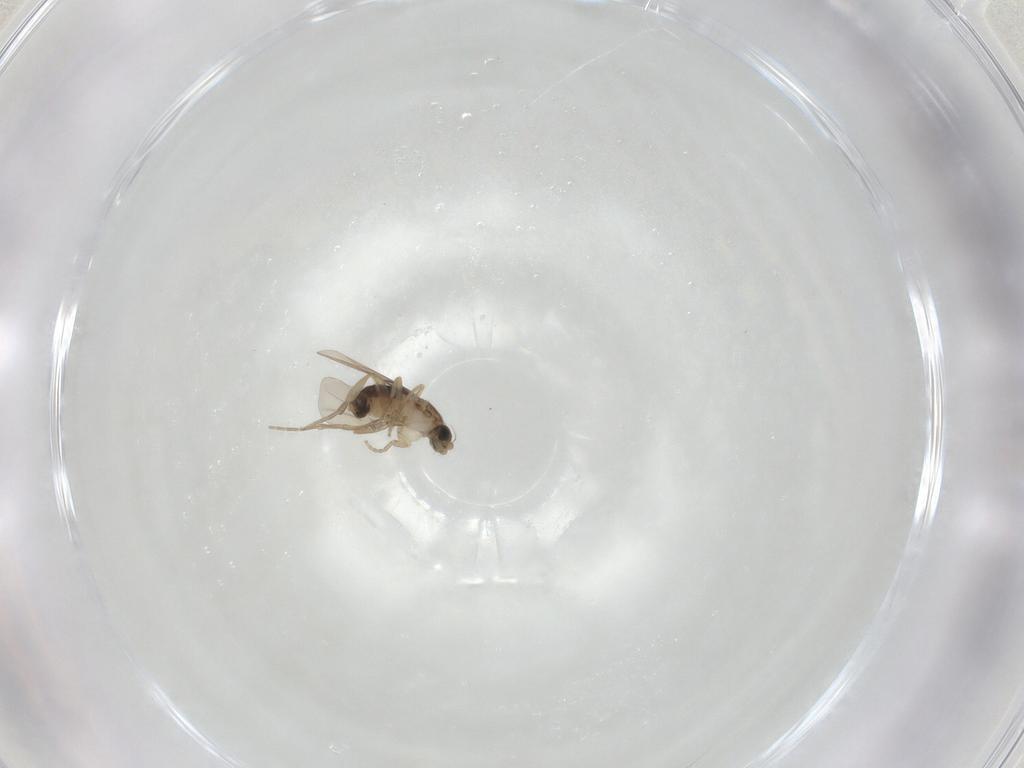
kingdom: Animalia
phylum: Arthropoda
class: Insecta
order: Diptera
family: Phoridae
